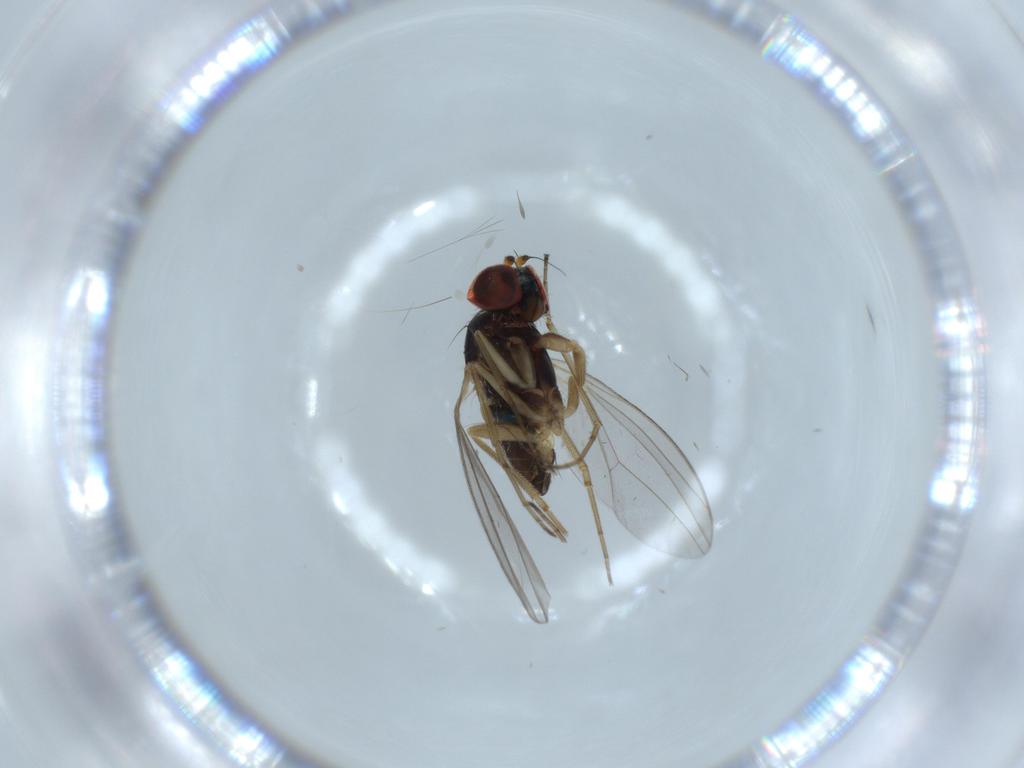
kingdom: Animalia
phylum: Arthropoda
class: Insecta
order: Diptera
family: Dolichopodidae
